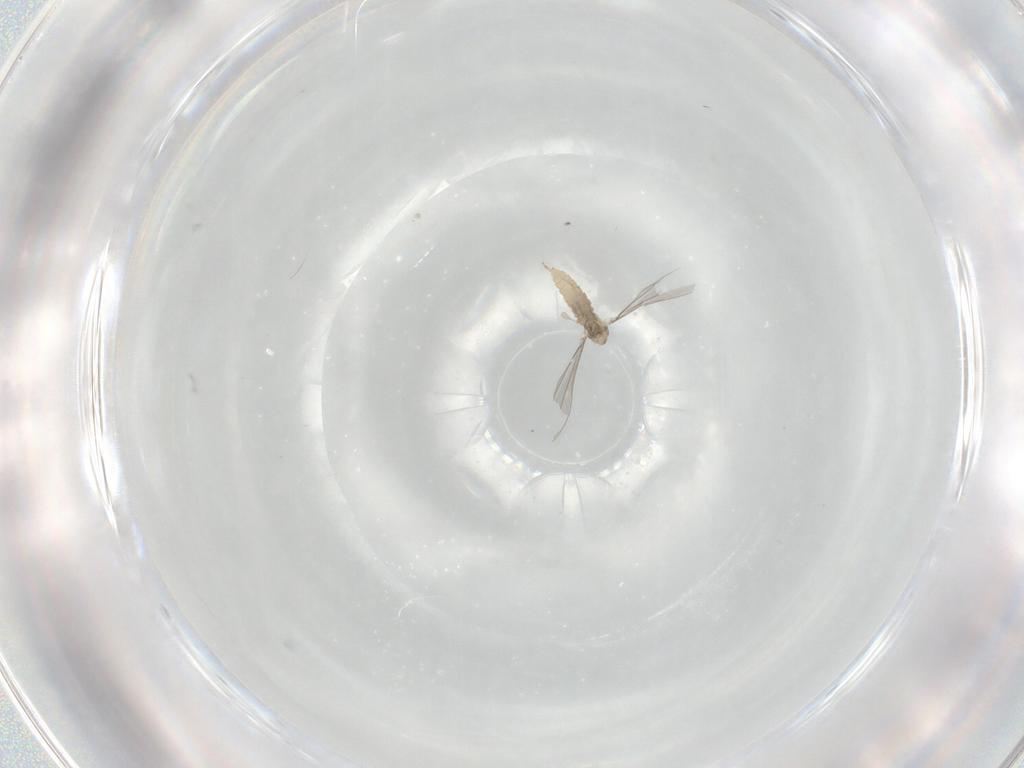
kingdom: Animalia
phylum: Arthropoda
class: Insecta
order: Diptera
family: Cecidomyiidae
